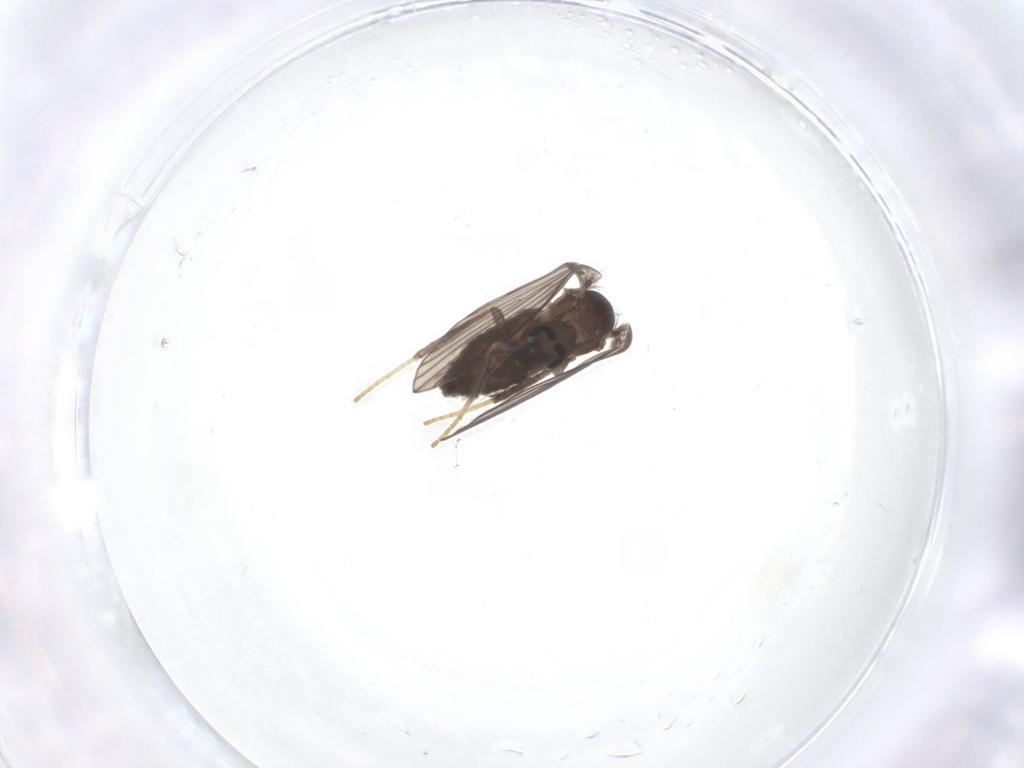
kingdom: Animalia
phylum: Arthropoda
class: Insecta
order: Diptera
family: Psychodidae
